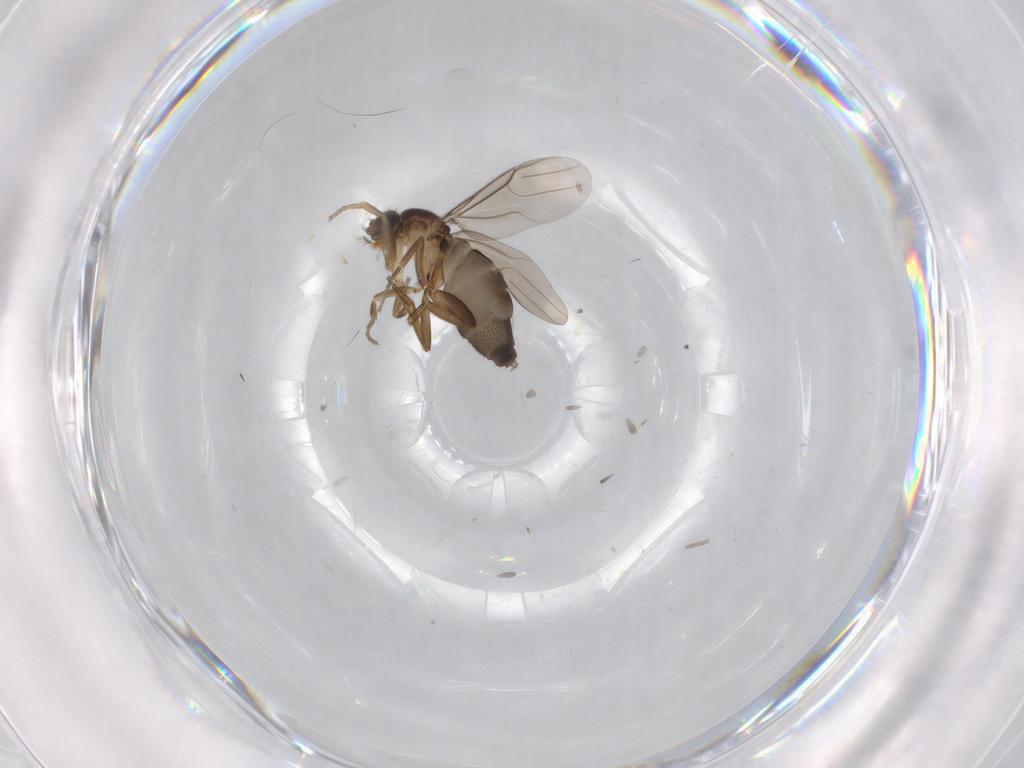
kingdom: Animalia
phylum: Arthropoda
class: Insecta
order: Diptera
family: Phoridae
